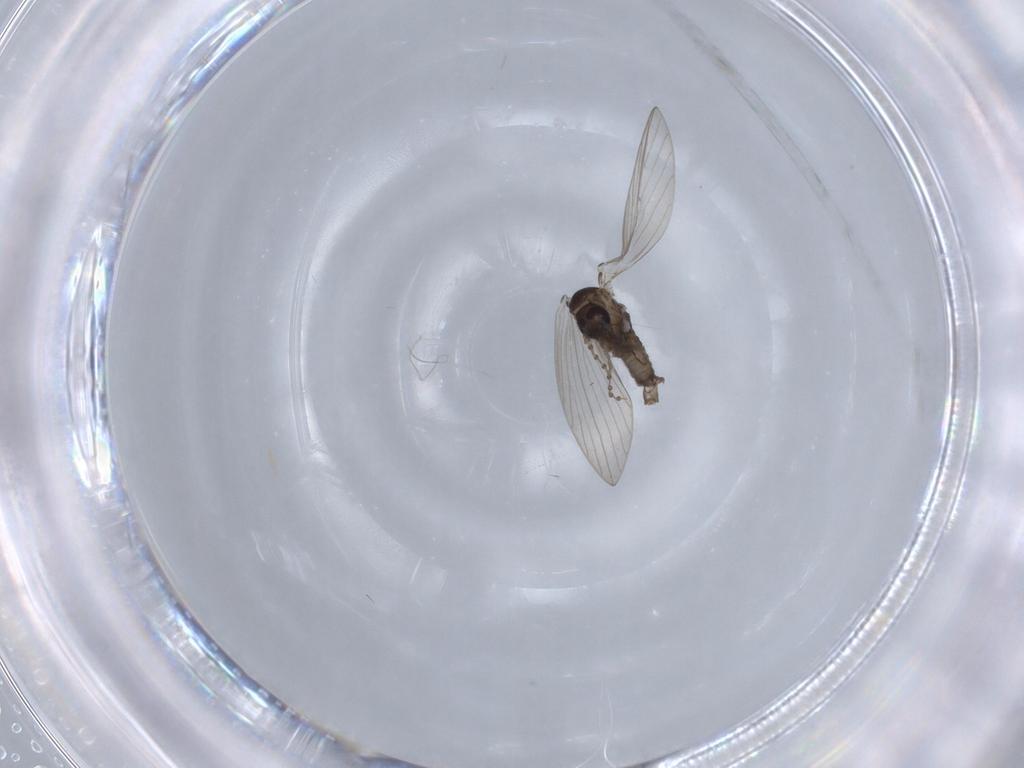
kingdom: Animalia
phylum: Arthropoda
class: Insecta
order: Diptera
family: Psychodidae
